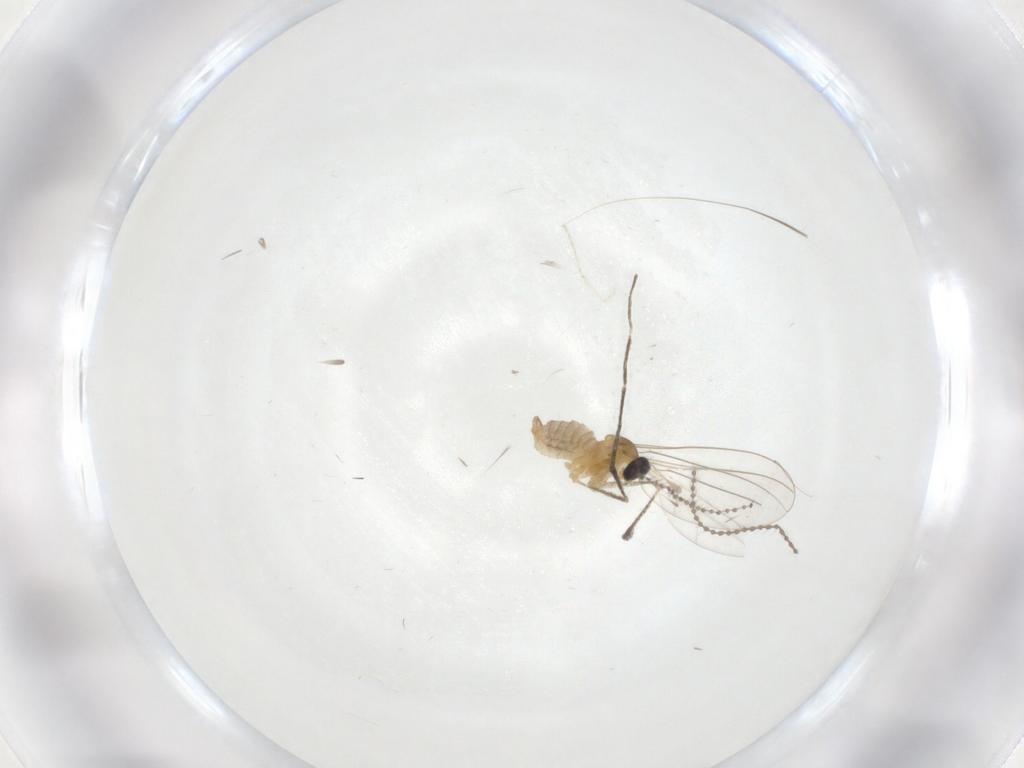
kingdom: Animalia
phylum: Arthropoda
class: Insecta
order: Diptera
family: Cecidomyiidae
